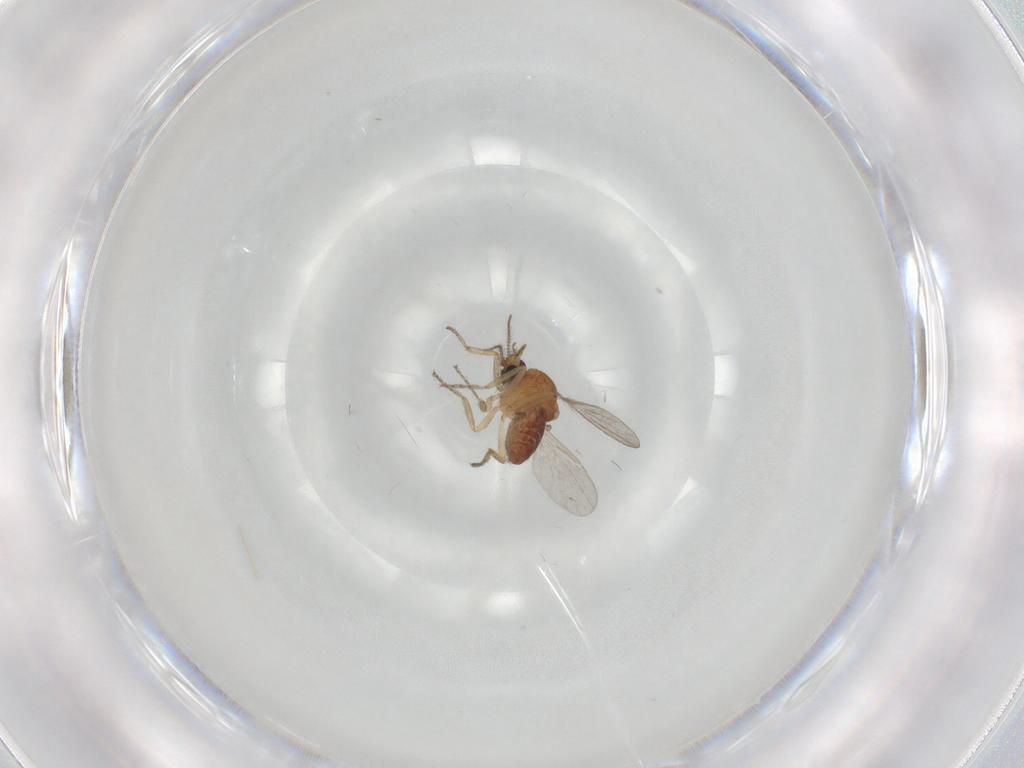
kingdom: Animalia
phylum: Arthropoda
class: Insecta
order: Diptera
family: Ceratopogonidae
